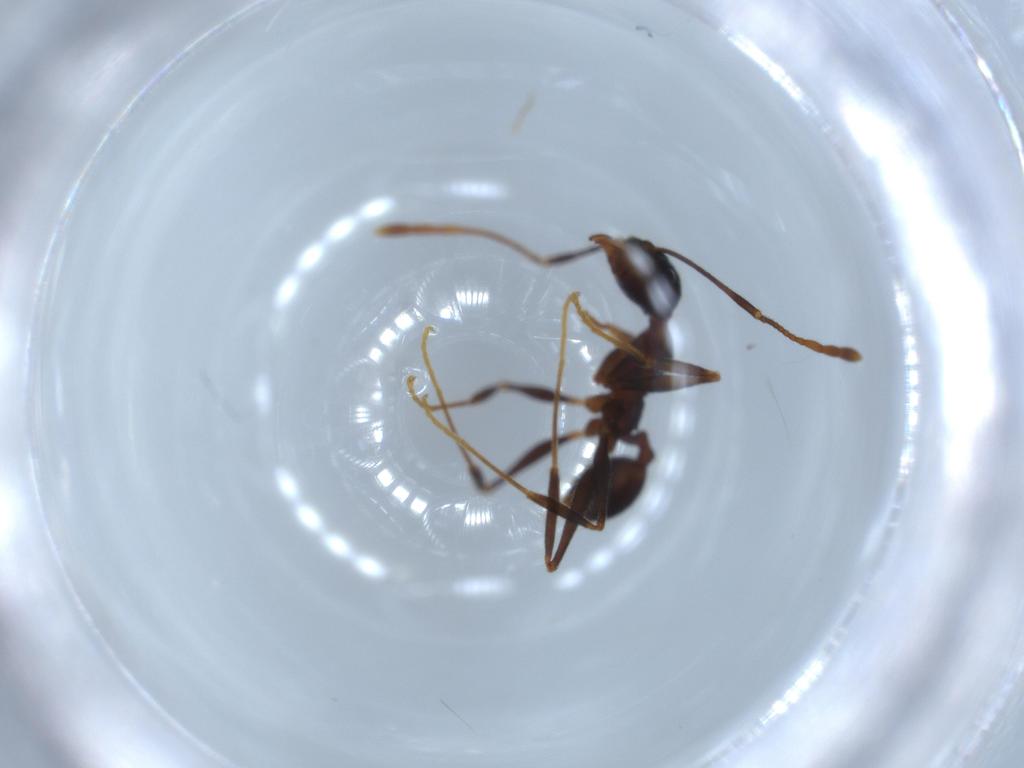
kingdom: Animalia
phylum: Arthropoda
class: Insecta
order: Hymenoptera
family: Formicidae
